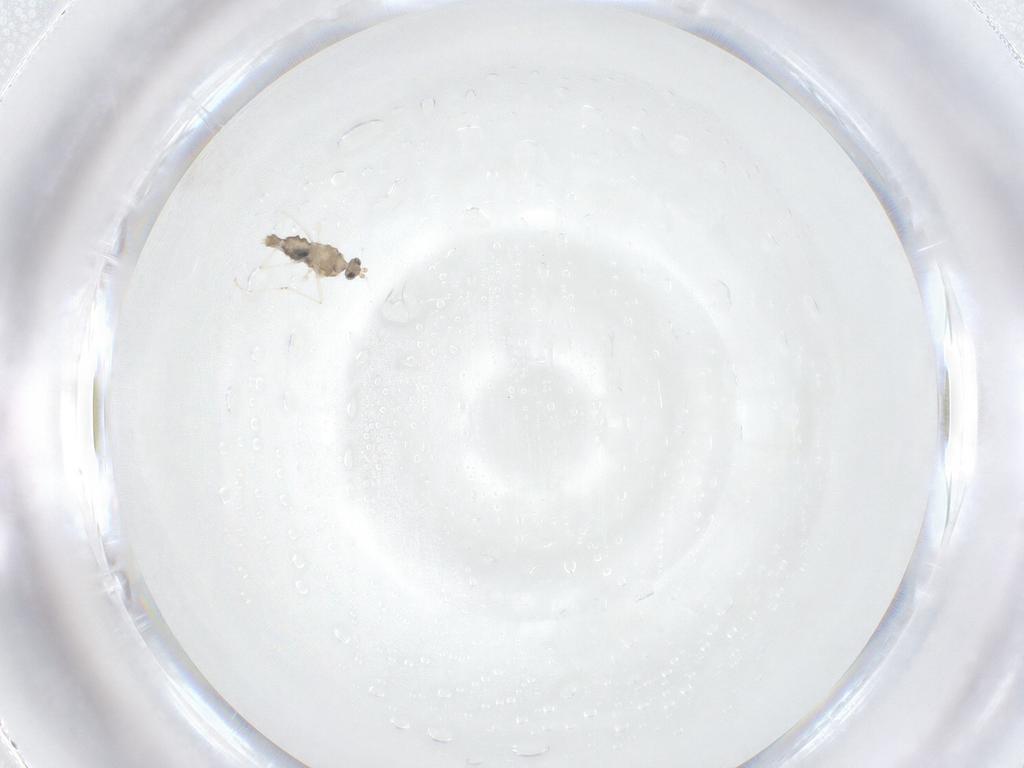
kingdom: Animalia
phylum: Arthropoda
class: Insecta
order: Diptera
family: Cecidomyiidae
